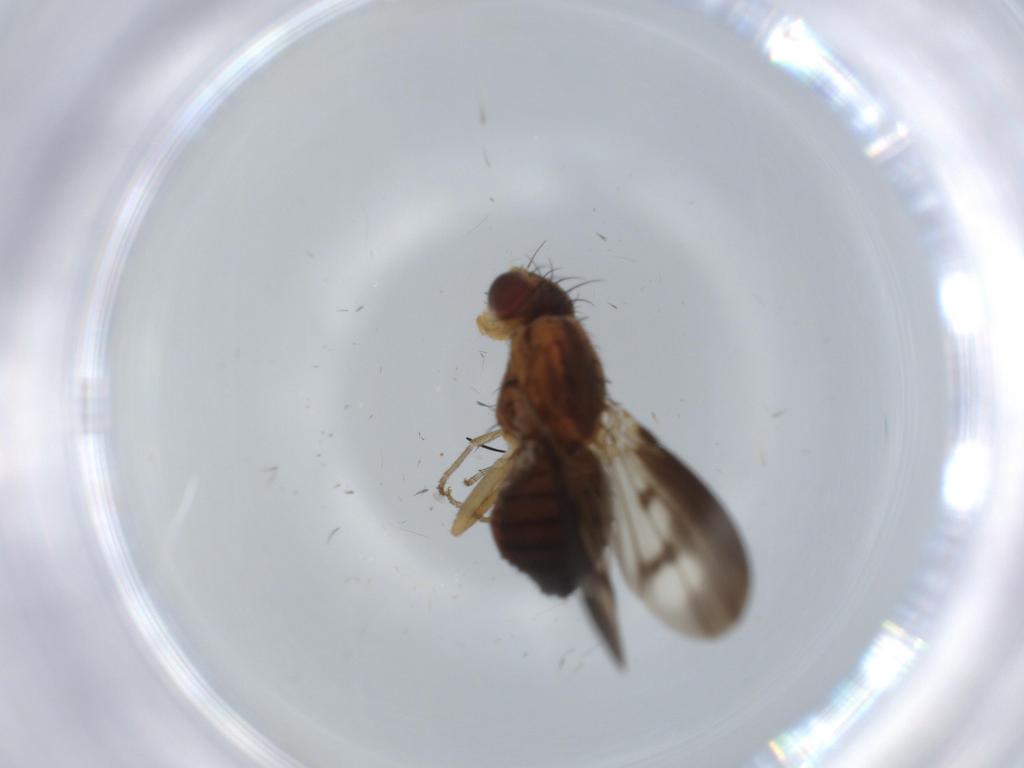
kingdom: Animalia
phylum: Arthropoda
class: Insecta
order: Diptera
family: Heleomyzidae
